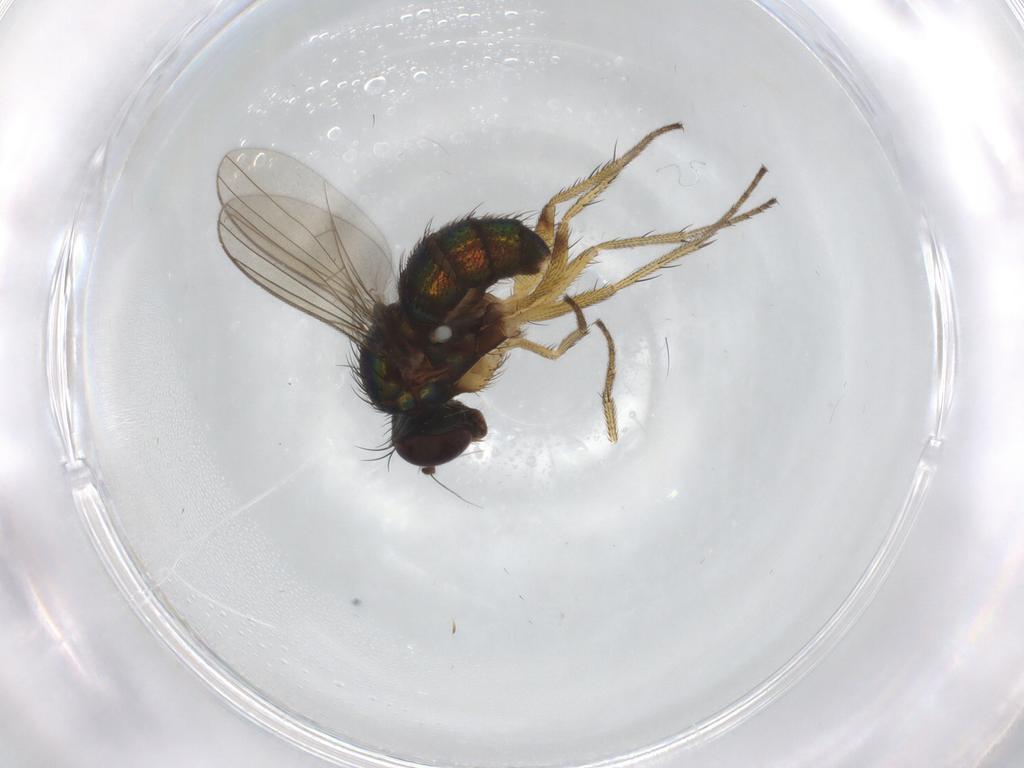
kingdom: Animalia
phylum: Arthropoda
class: Insecta
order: Diptera
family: Dolichopodidae
